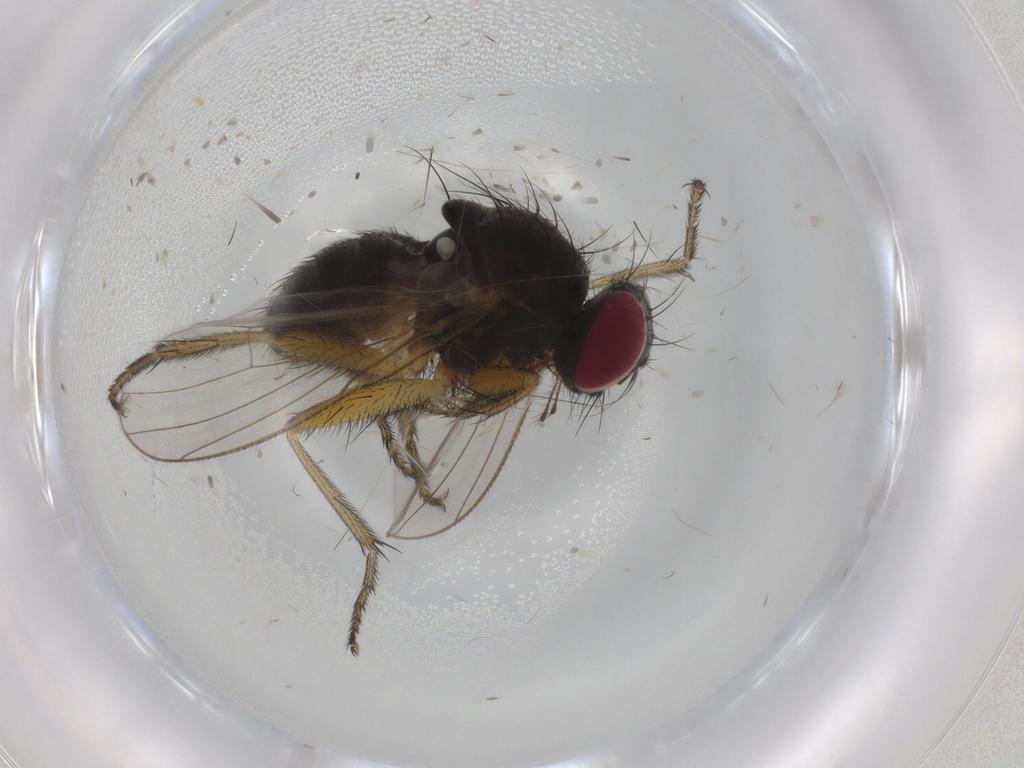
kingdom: Animalia
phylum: Arthropoda
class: Insecta
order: Diptera
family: Muscidae
